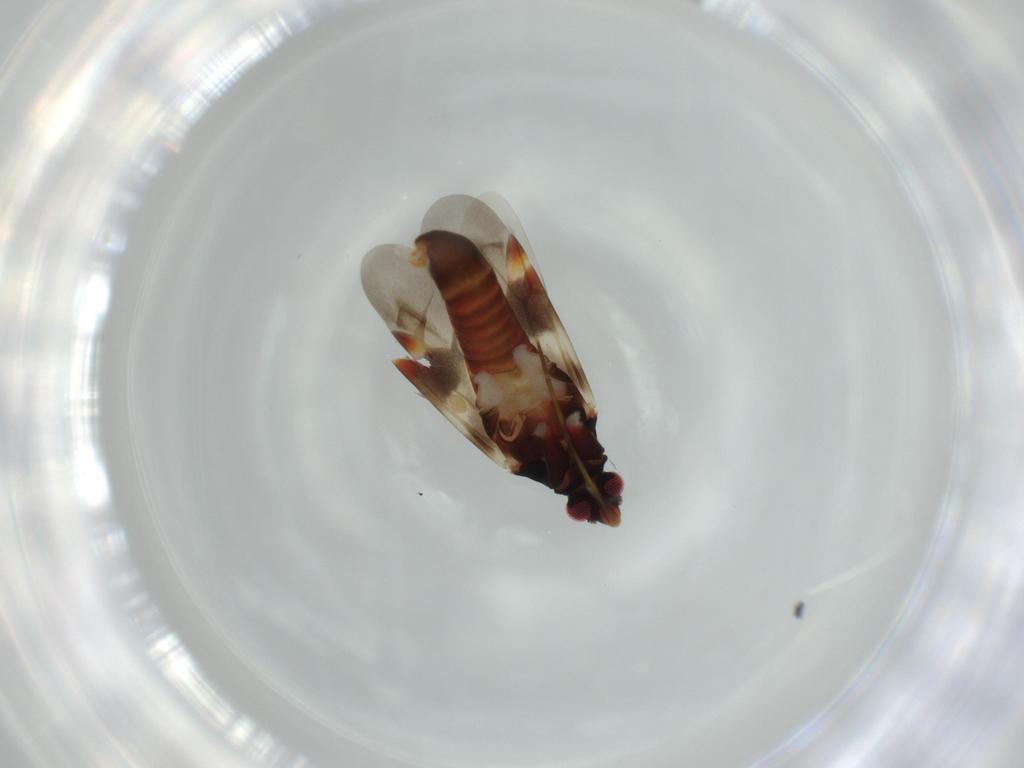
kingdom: Animalia
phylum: Arthropoda
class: Insecta
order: Hemiptera
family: Miridae
